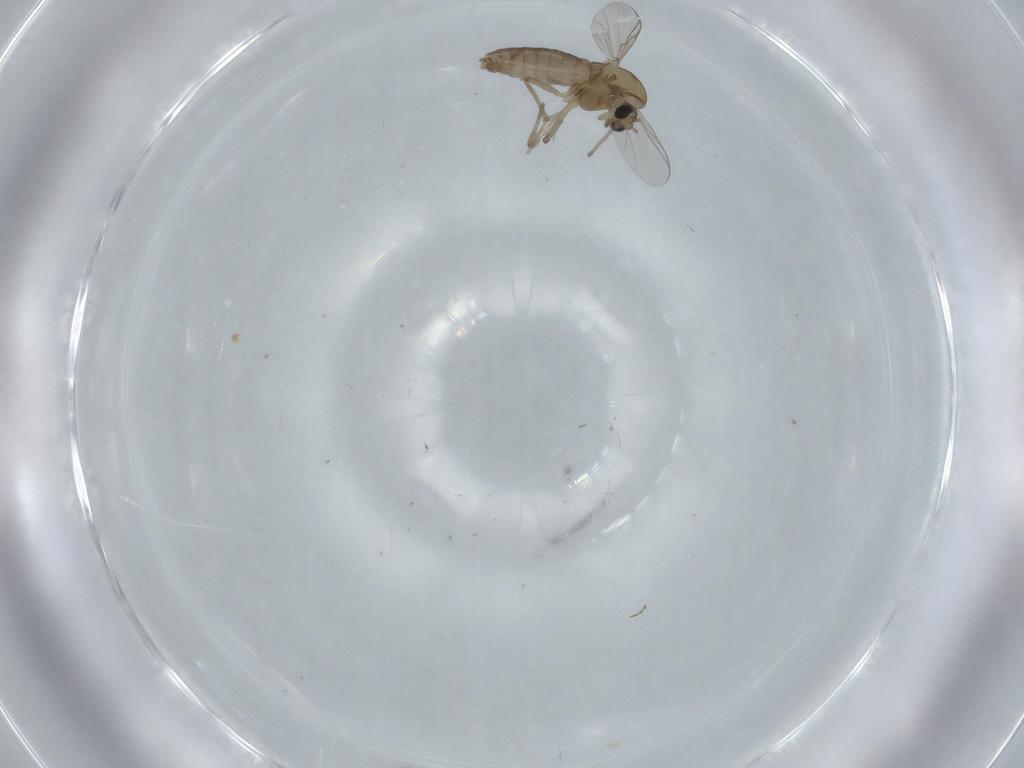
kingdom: Animalia
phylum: Arthropoda
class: Insecta
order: Diptera
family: Chironomidae
